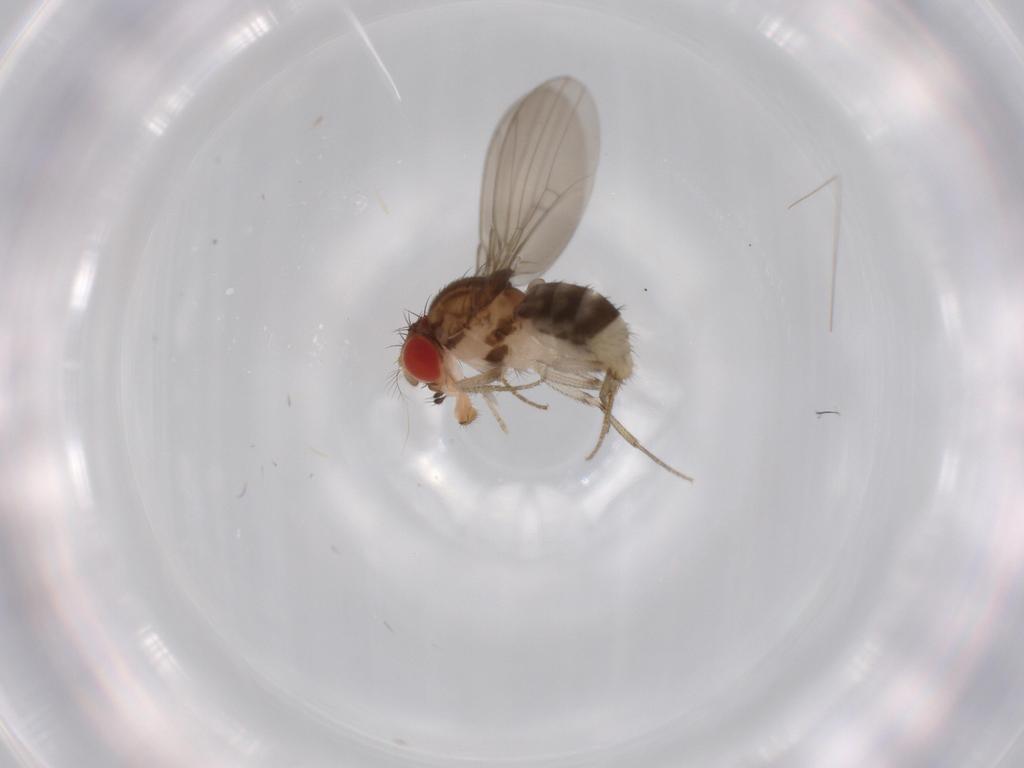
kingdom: Animalia
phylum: Arthropoda
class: Insecta
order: Diptera
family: Drosophilidae
